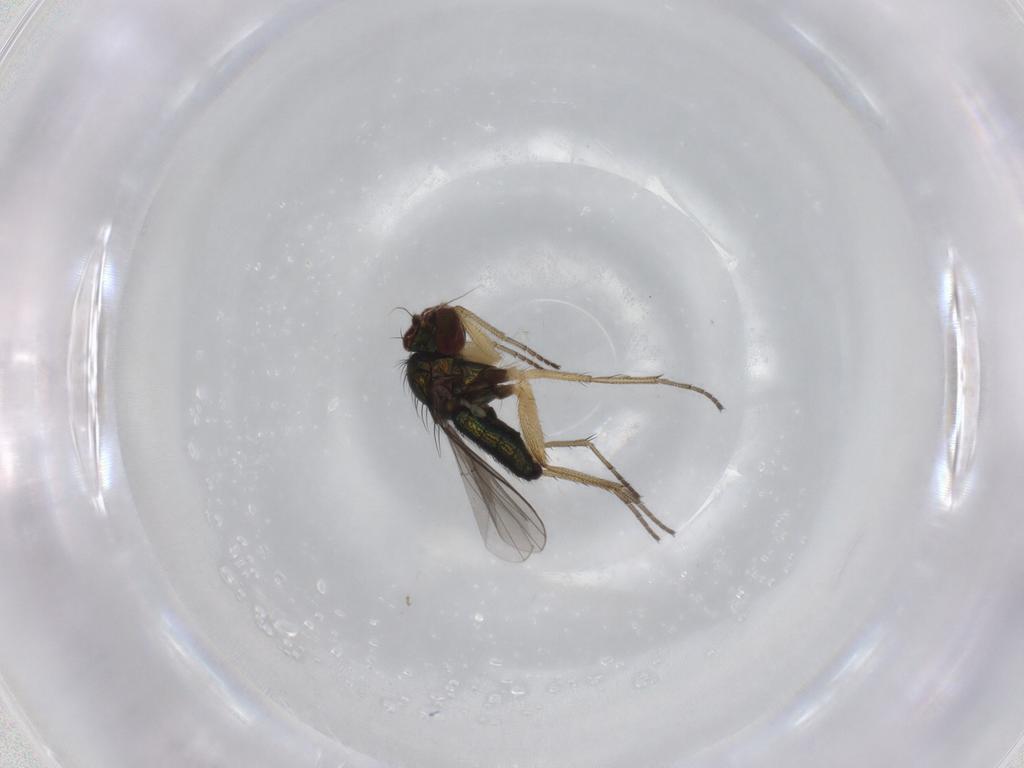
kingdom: Animalia
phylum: Arthropoda
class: Insecta
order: Diptera
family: Dolichopodidae
